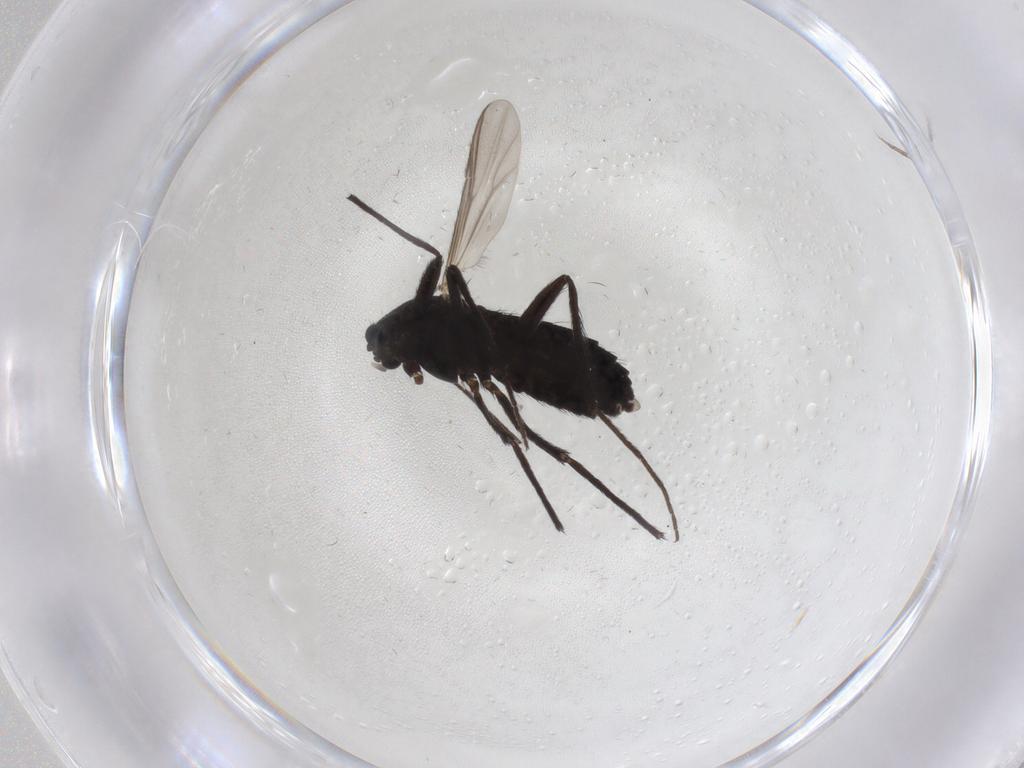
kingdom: Animalia
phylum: Arthropoda
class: Insecta
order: Diptera
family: Chironomidae
